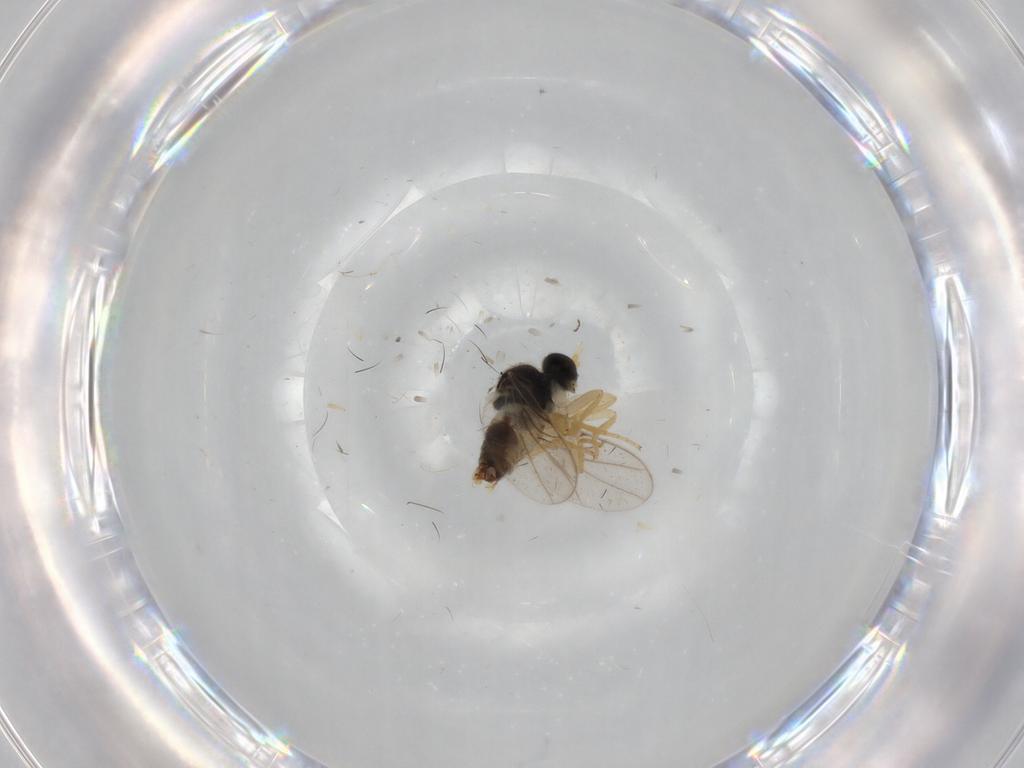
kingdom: Animalia
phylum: Arthropoda
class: Insecta
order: Diptera
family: Hybotidae
